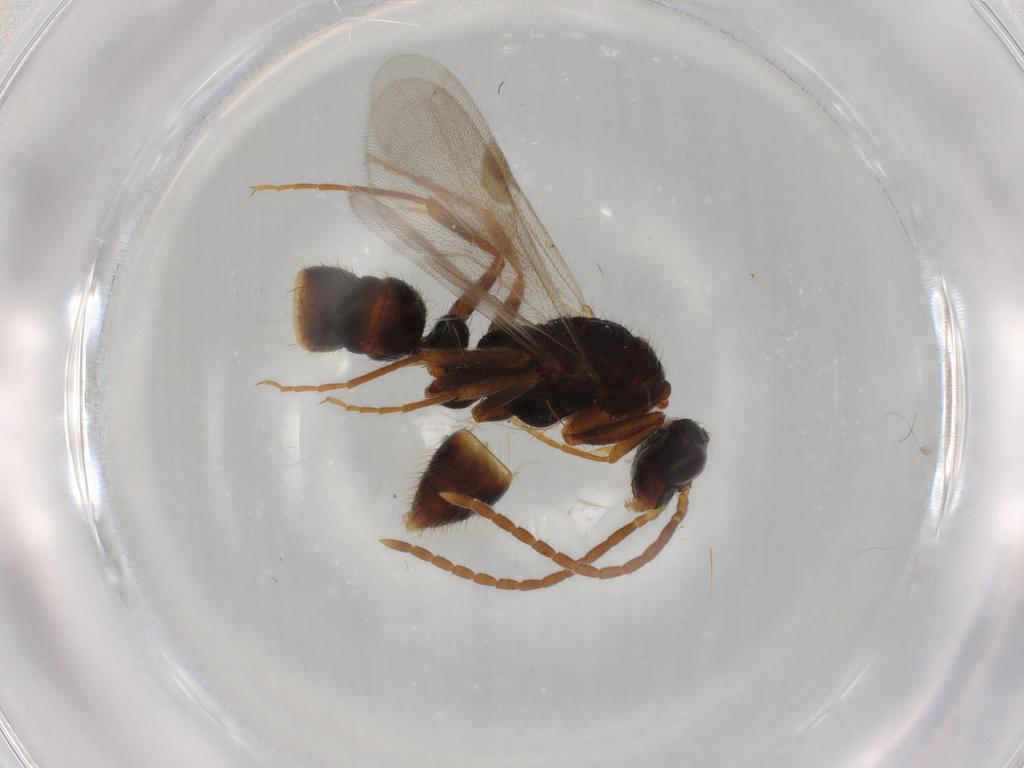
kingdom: Animalia
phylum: Arthropoda
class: Insecta
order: Hymenoptera
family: Formicidae
